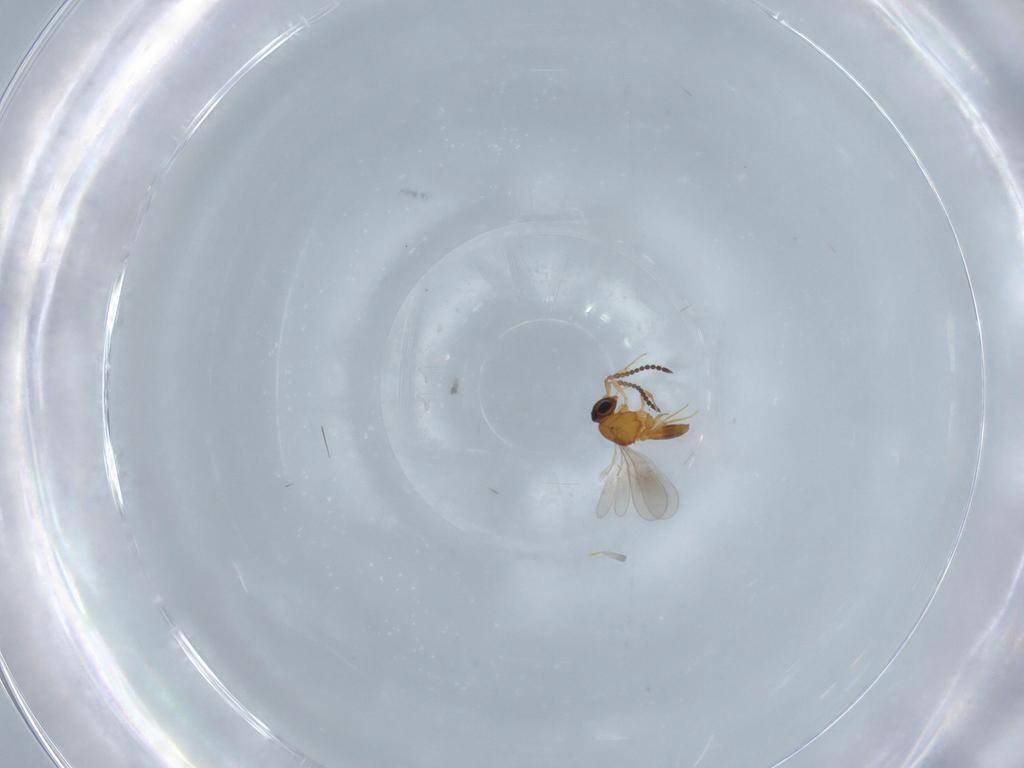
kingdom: Animalia
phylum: Arthropoda
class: Insecta
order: Hymenoptera
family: Scelionidae
